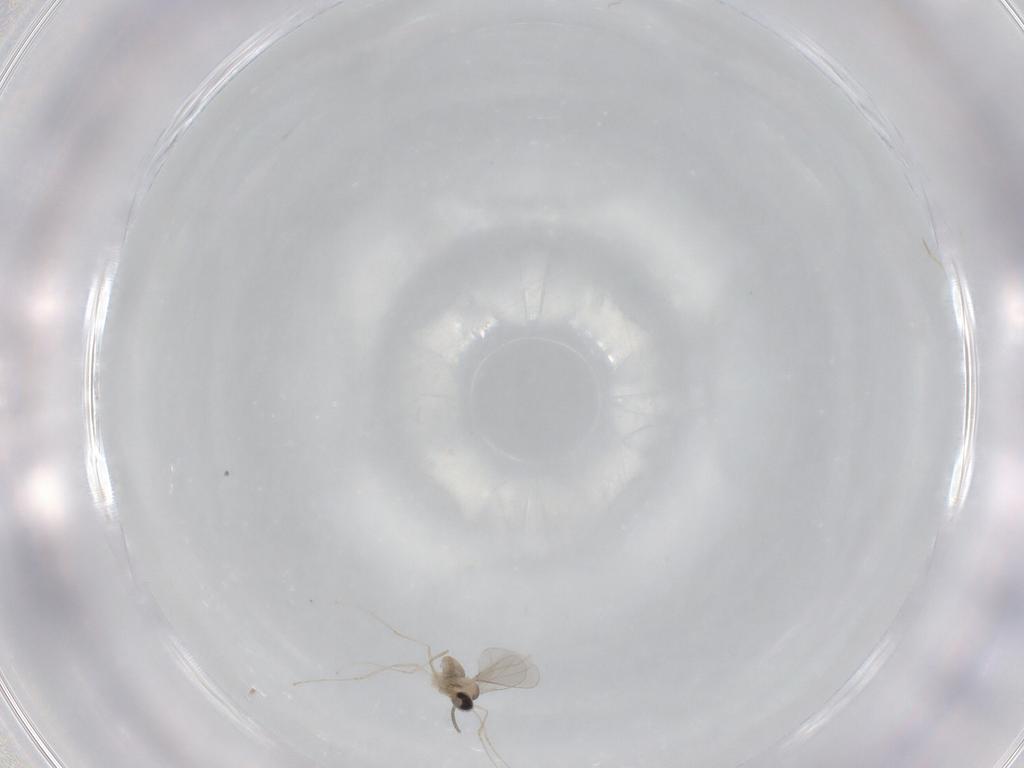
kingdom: Animalia
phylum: Arthropoda
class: Insecta
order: Diptera
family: Cecidomyiidae
